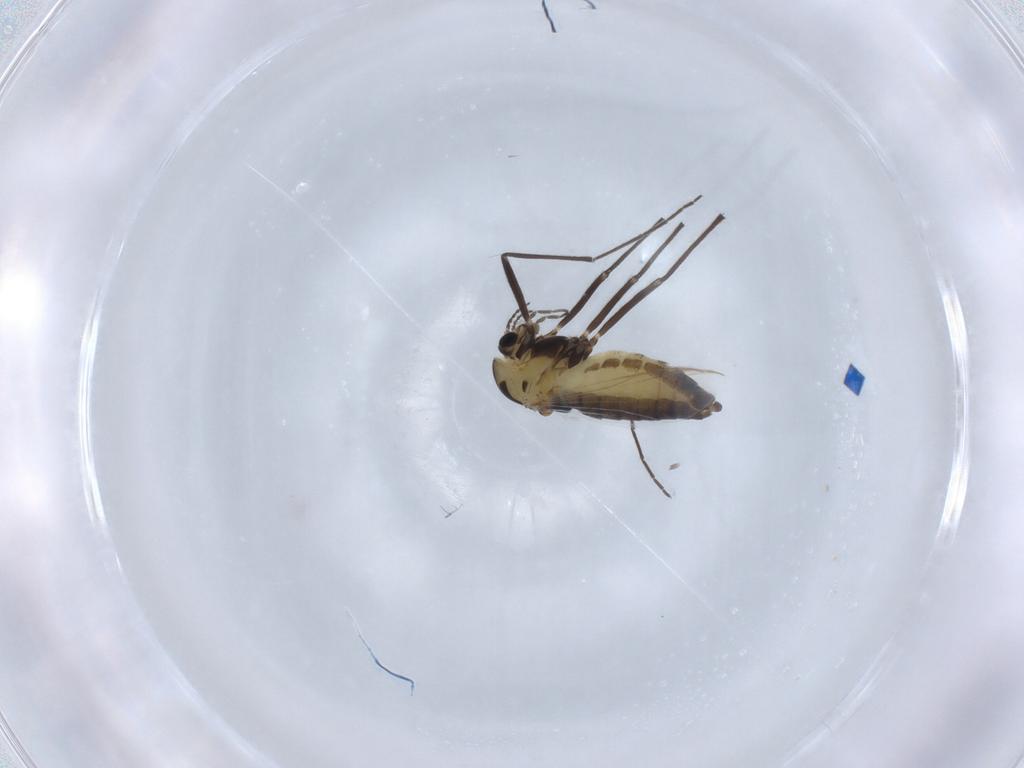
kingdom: Animalia
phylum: Arthropoda
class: Insecta
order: Diptera
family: Chironomidae
